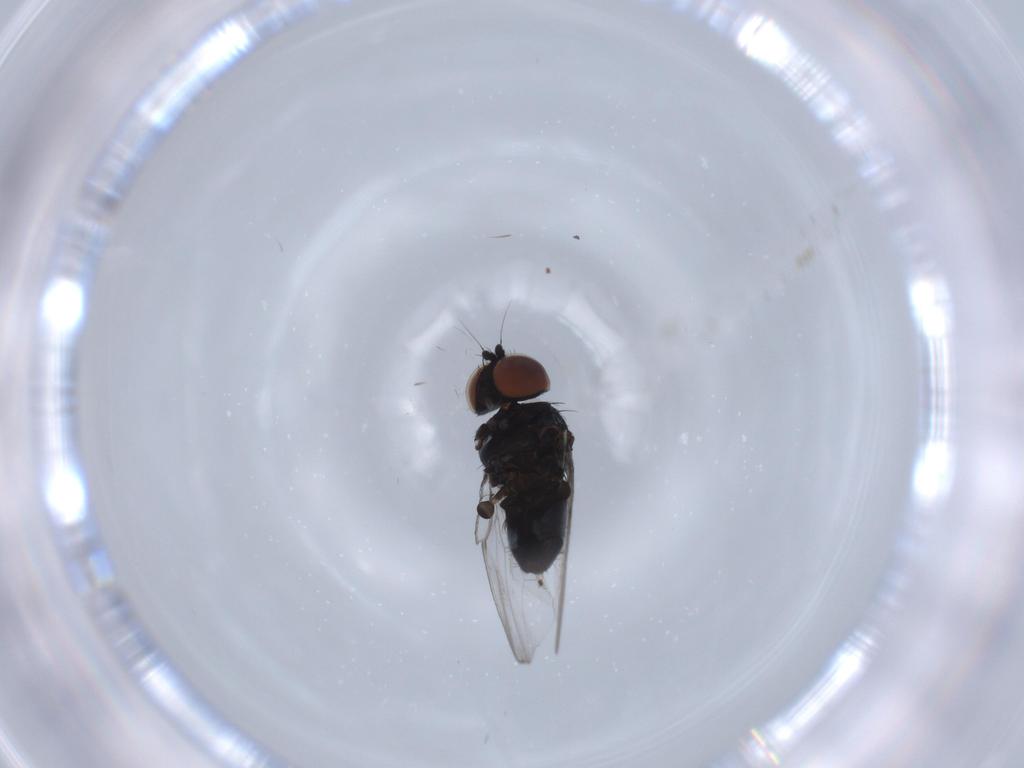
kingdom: Animalia
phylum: Arthropoda
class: Insecta
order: Diptera
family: Milichiidae
